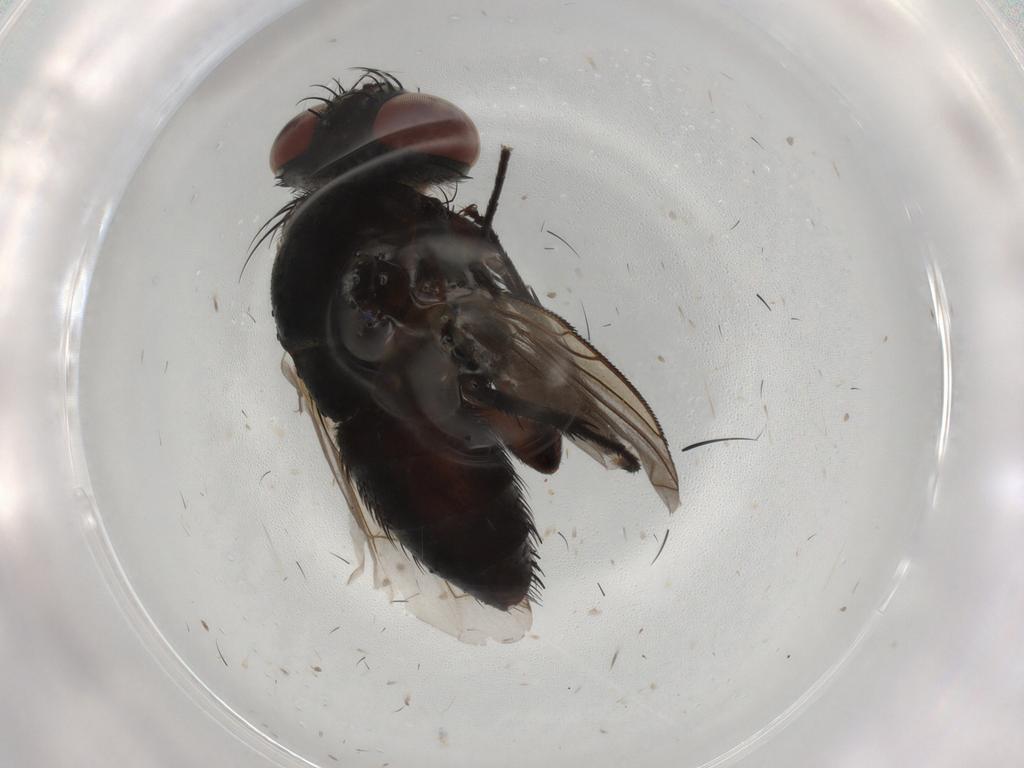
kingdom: Animalia
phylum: Arthropoda
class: Insecta
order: Diptera
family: Tachinidae
